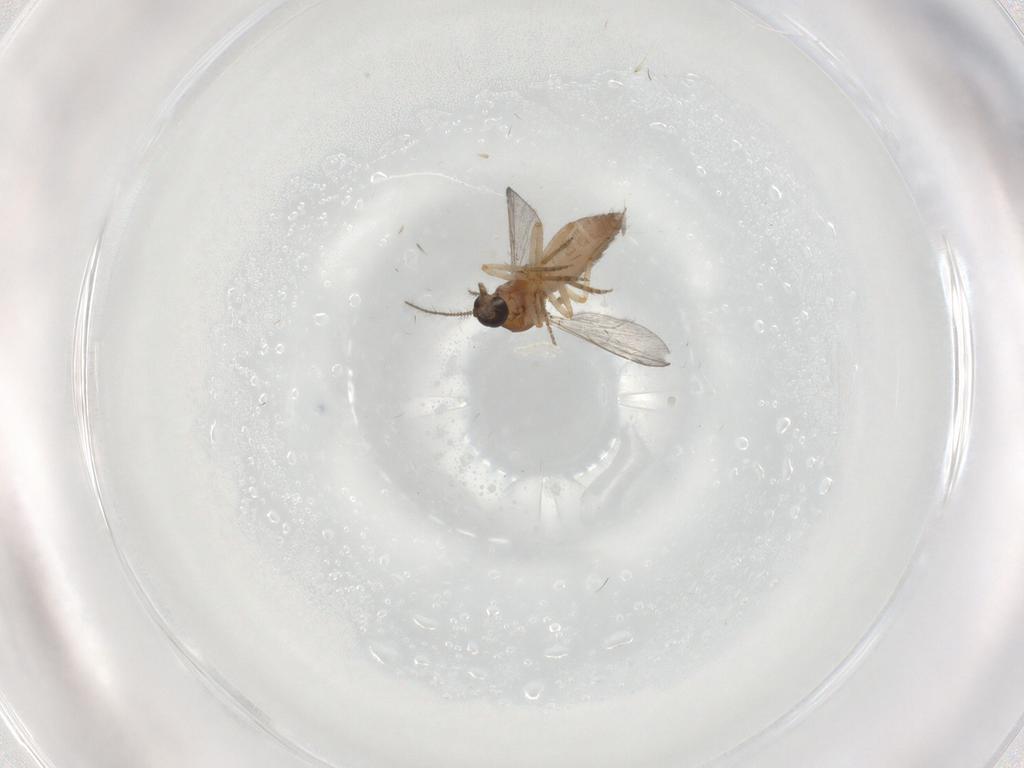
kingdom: Animalia
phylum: Arthropoda
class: Insecta
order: Diptera
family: Ceratopogonidae
